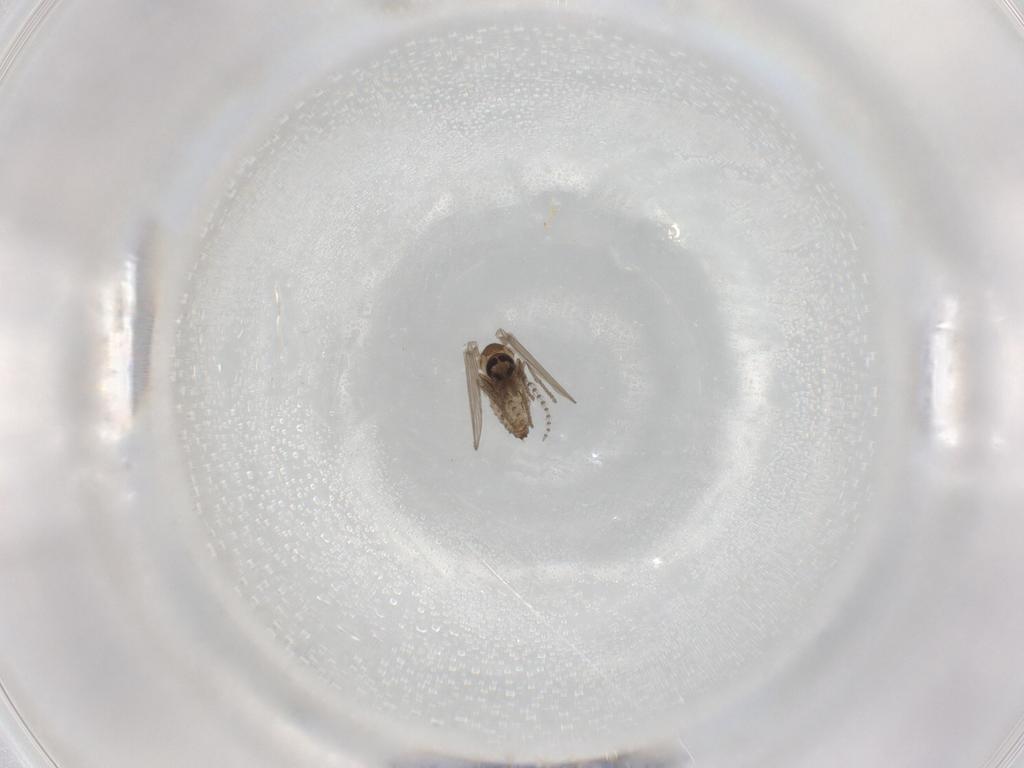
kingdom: Animalia
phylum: Arthropoda
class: Insecta
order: Diptera
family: Psychodidae
